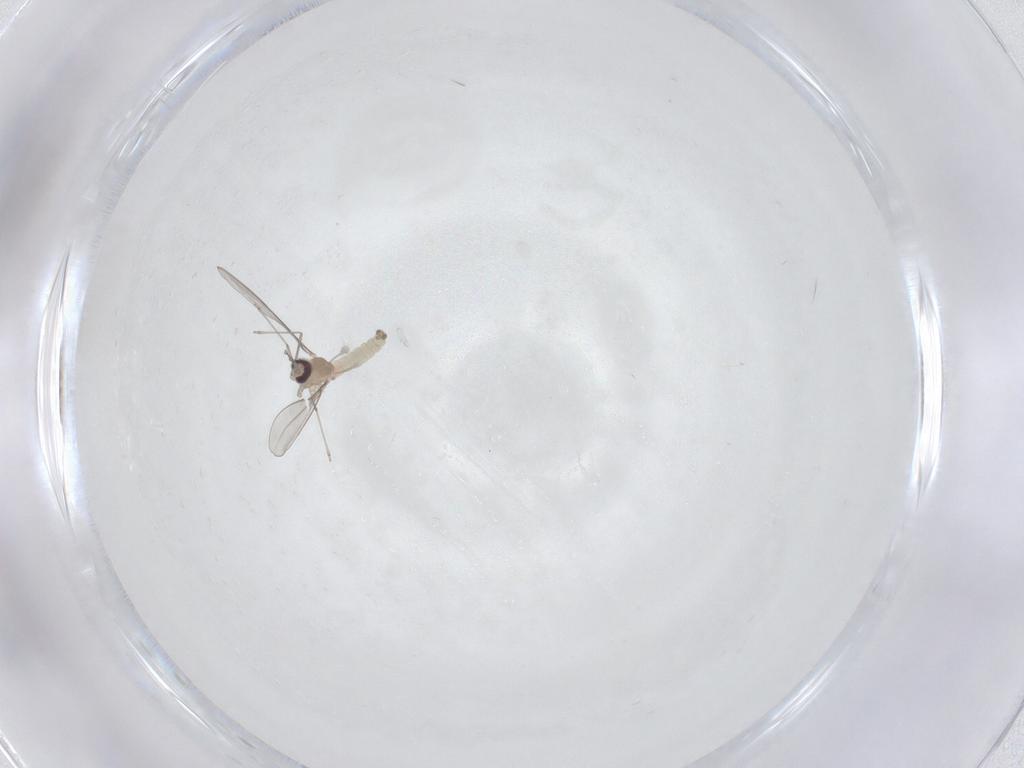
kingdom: Animalia
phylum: Arthropoda
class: Insecta
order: Diptera
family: Cecidomyiidae
